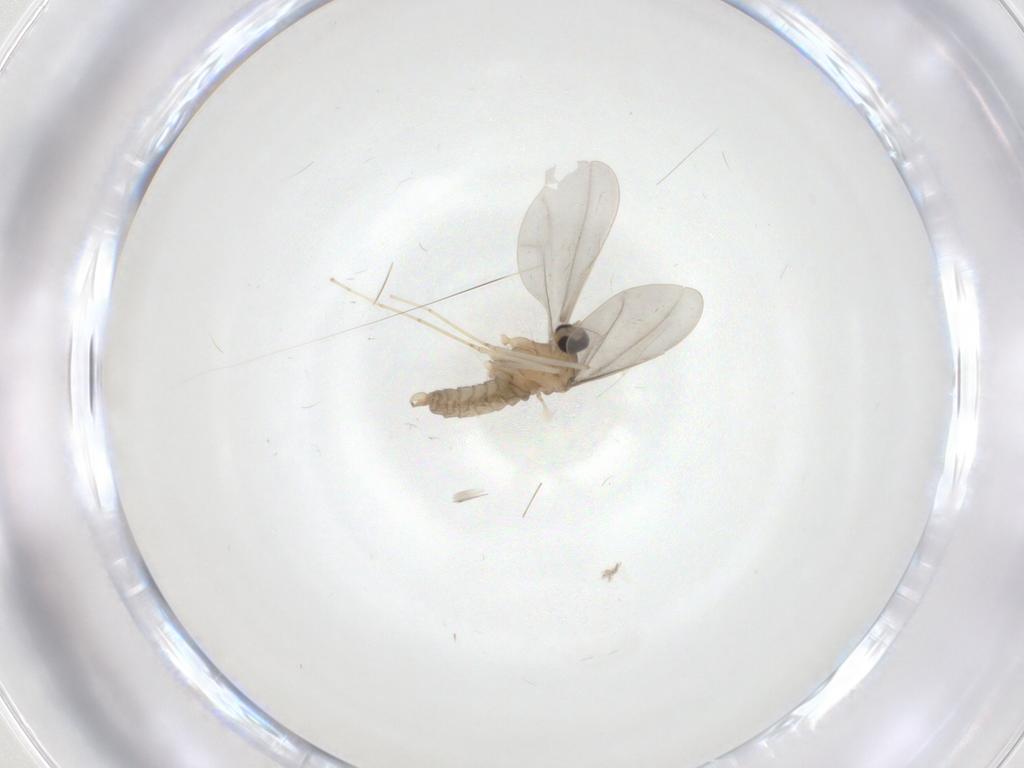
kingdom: Animalia
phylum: Arthropoda
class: Insecta
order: Diptera
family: Cecidomyiidae
